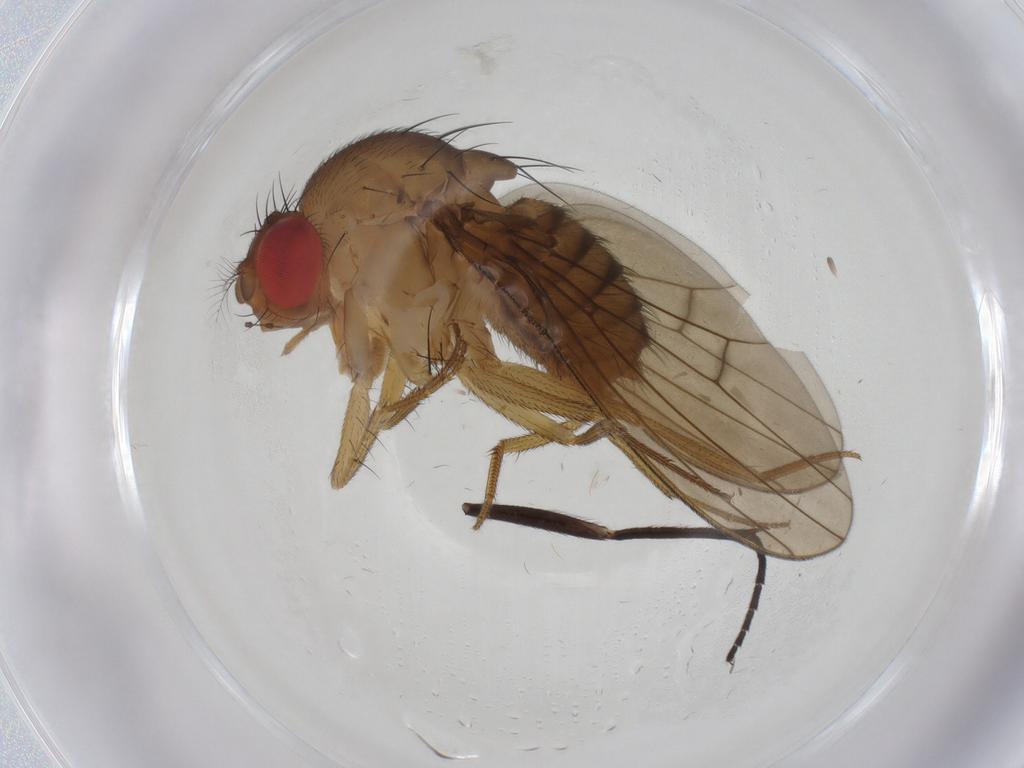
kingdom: Animalia
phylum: Arthropoda
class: Insecta
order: Diptera
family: Drosophilidae
